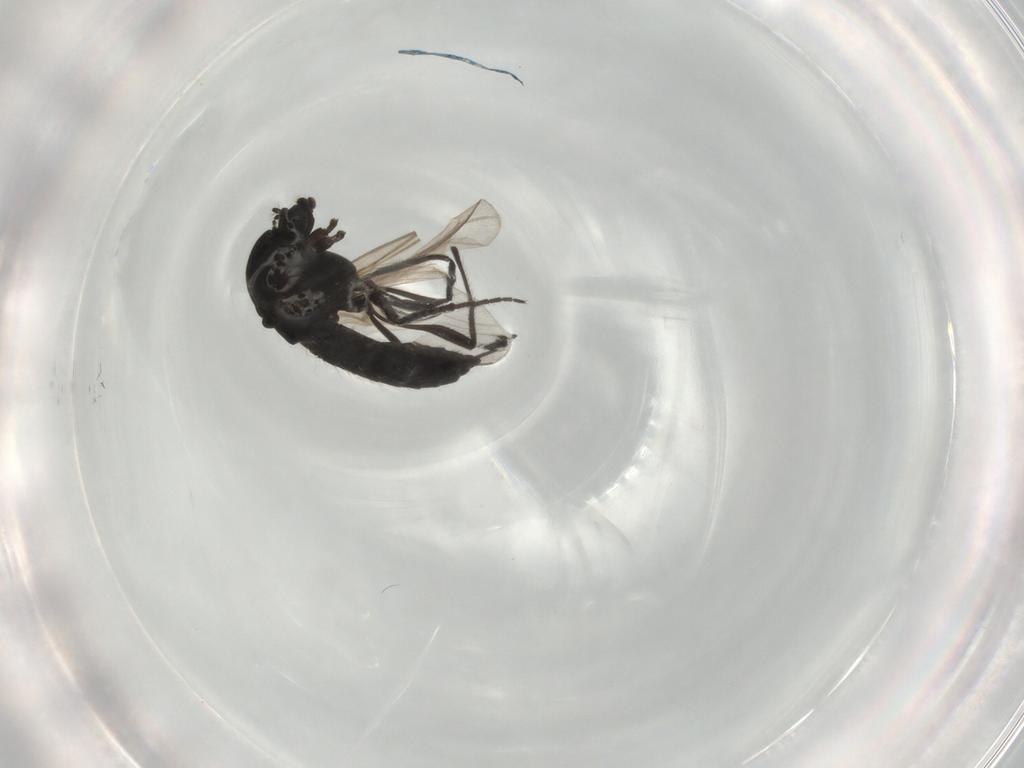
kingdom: Animalia
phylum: Arthropoda
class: Insecta
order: Diptera
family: Chironomidae
